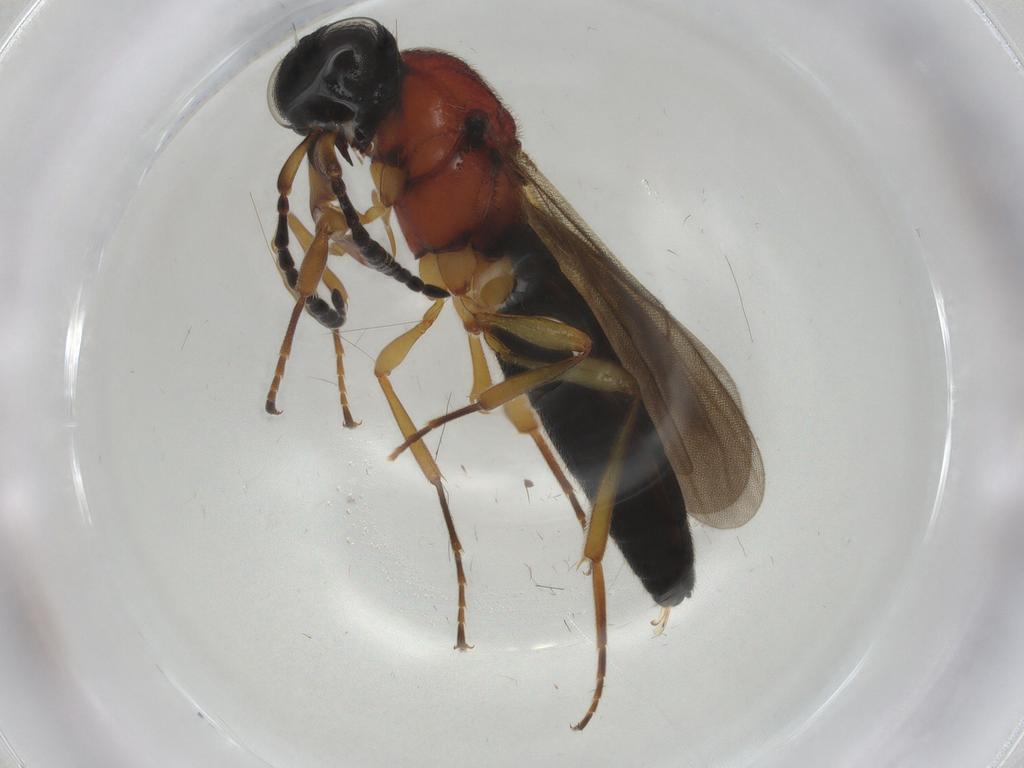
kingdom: Animalia
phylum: Arthropoda
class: Insecta
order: Hymenoptera
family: Scelionidae
